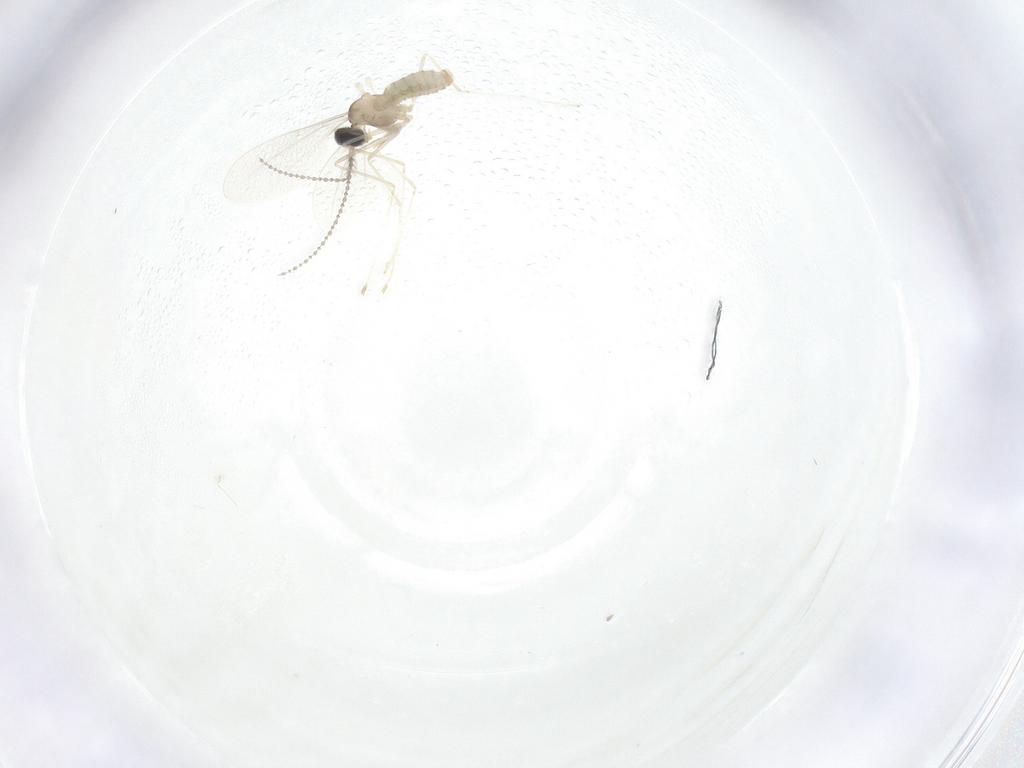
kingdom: Animalia
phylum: Arthropoda
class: Insecta
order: Diptera
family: Cecidomyiidae
